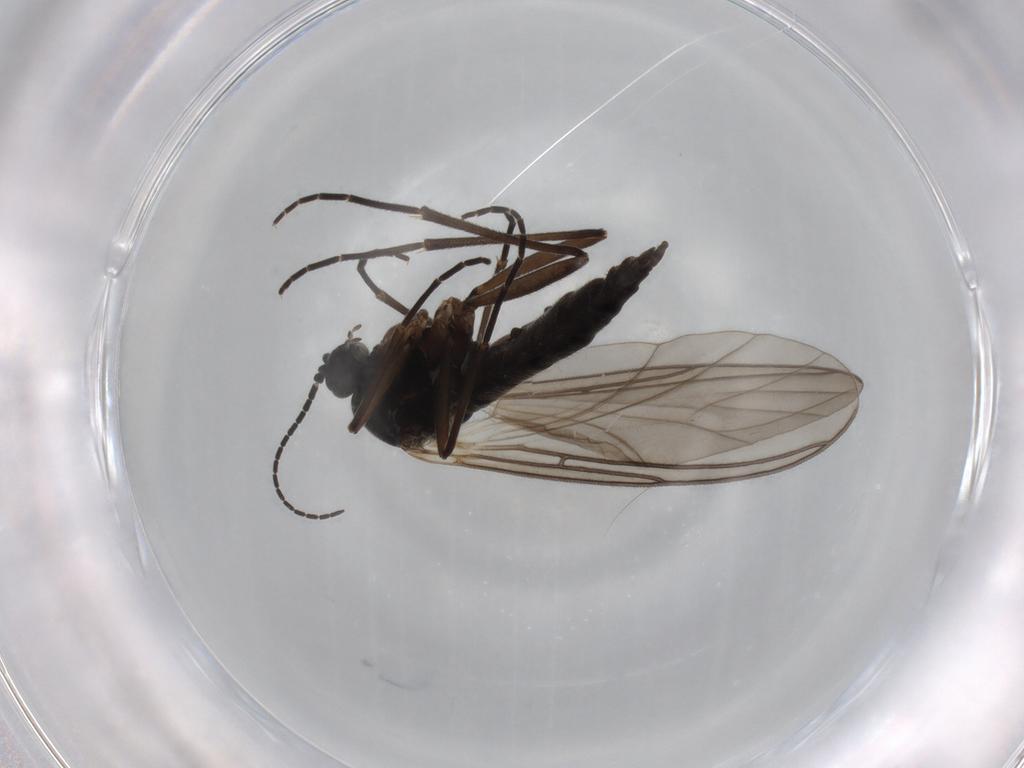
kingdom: Animalia
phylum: Arthropoda
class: Insecta
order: Diptera
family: Sciaridae
